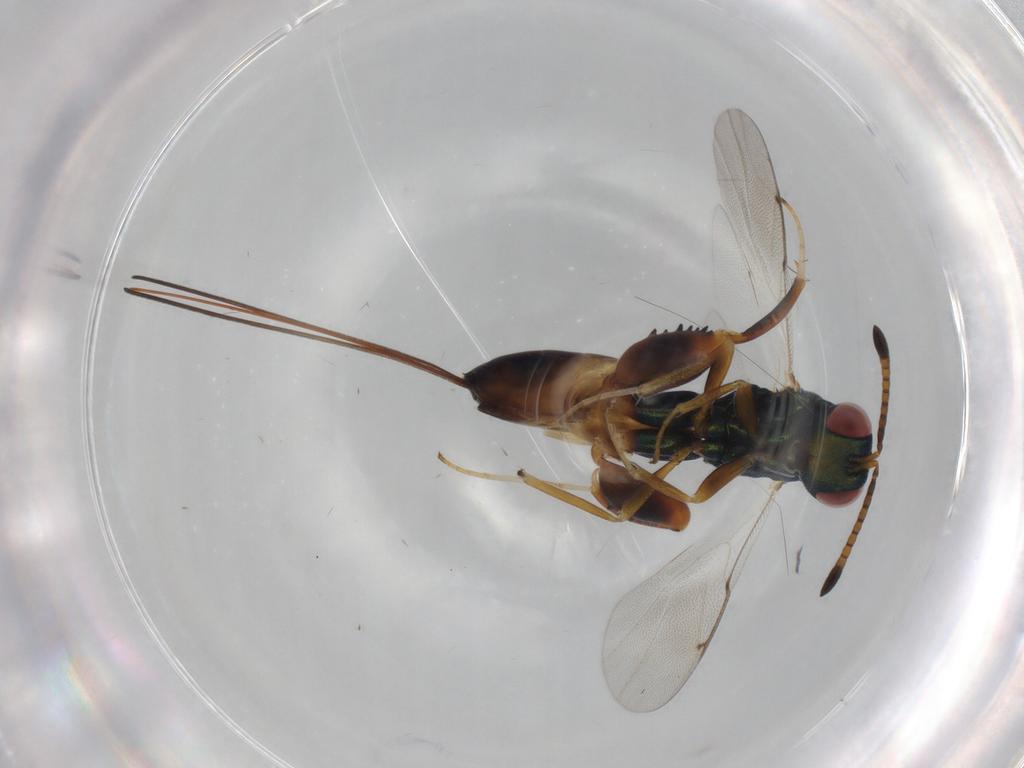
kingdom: Animalia
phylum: Arthropoda
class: Insecta
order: Hymenoptera
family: Torymidae
